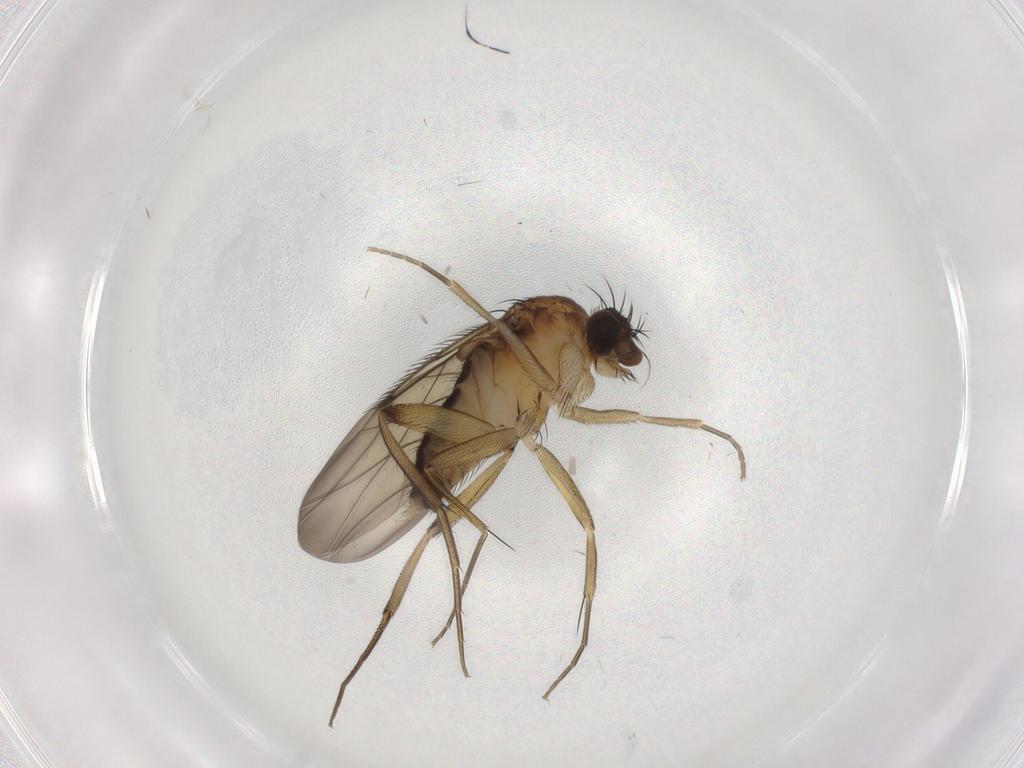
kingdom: Animalia
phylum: Arthropoda
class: Insecta
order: Diptera
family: Phoridae
